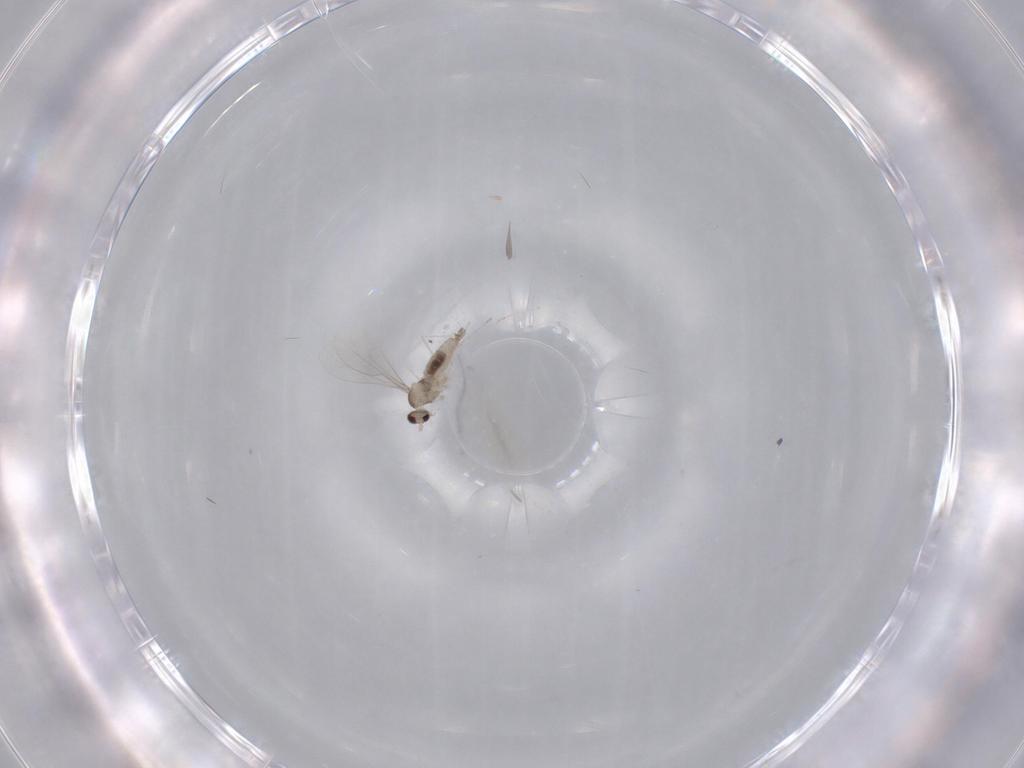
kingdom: Animalia
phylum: Arthropoda
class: Insecta
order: Diptera
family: Cecidomyiidae
